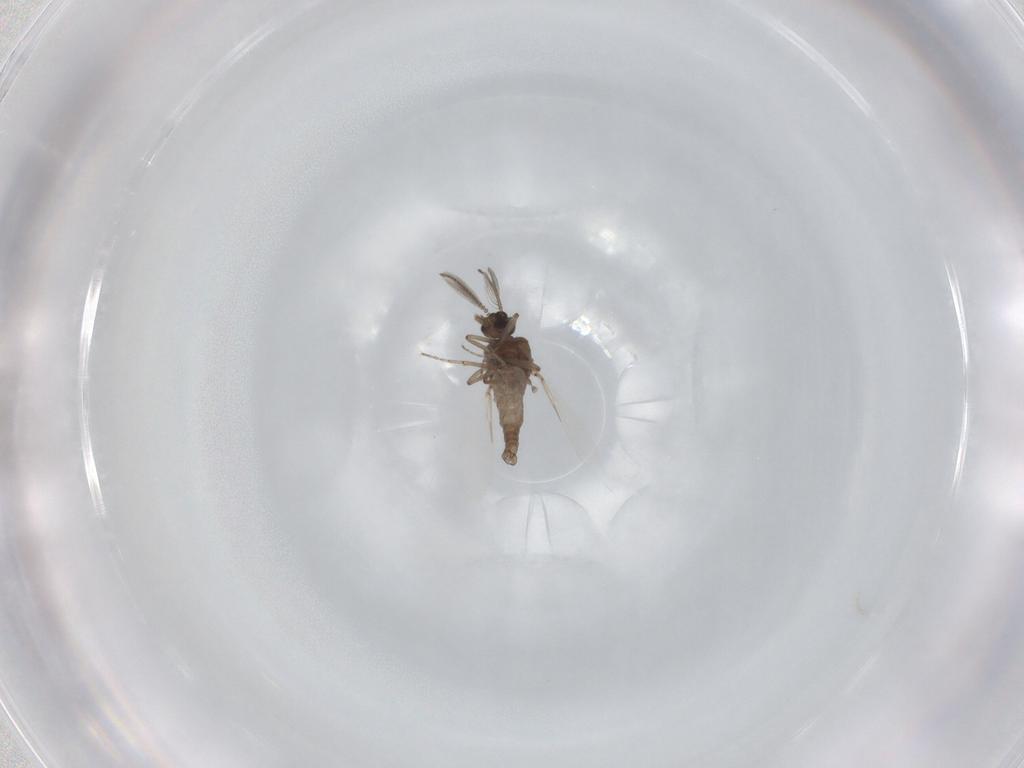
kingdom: Animalia
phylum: Arthropoda
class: Insecta
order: Diptera
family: Ceratopogonidae
